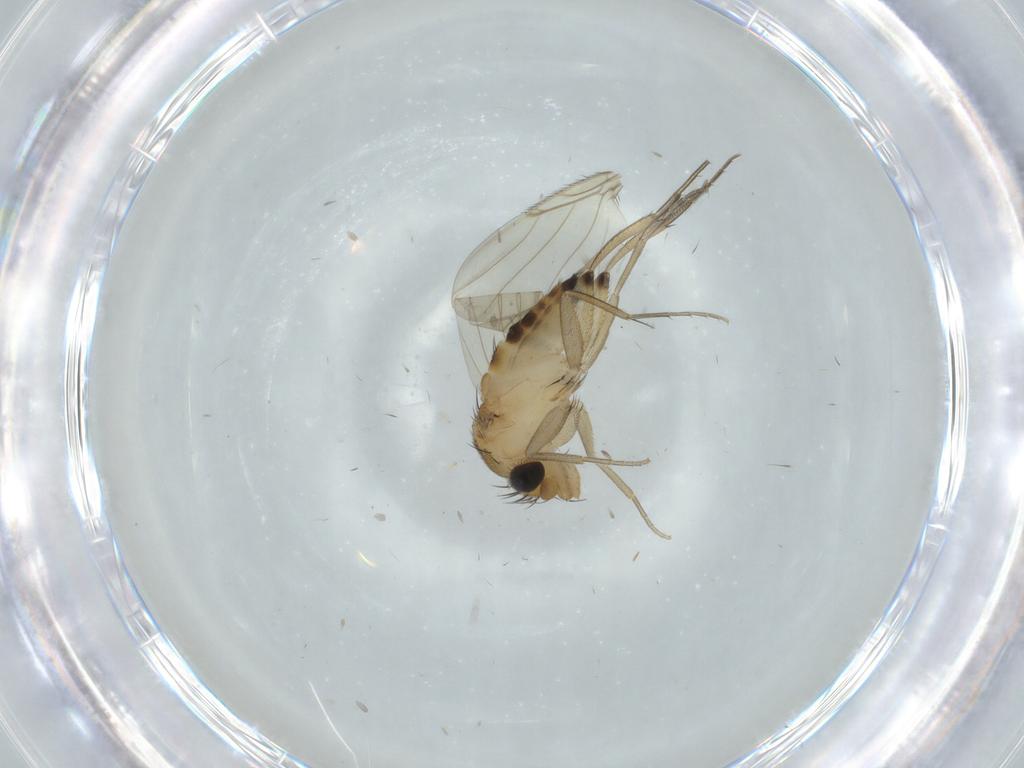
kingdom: Animalia
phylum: Arthropoda
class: Insecta
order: Diptera
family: Phoridae
